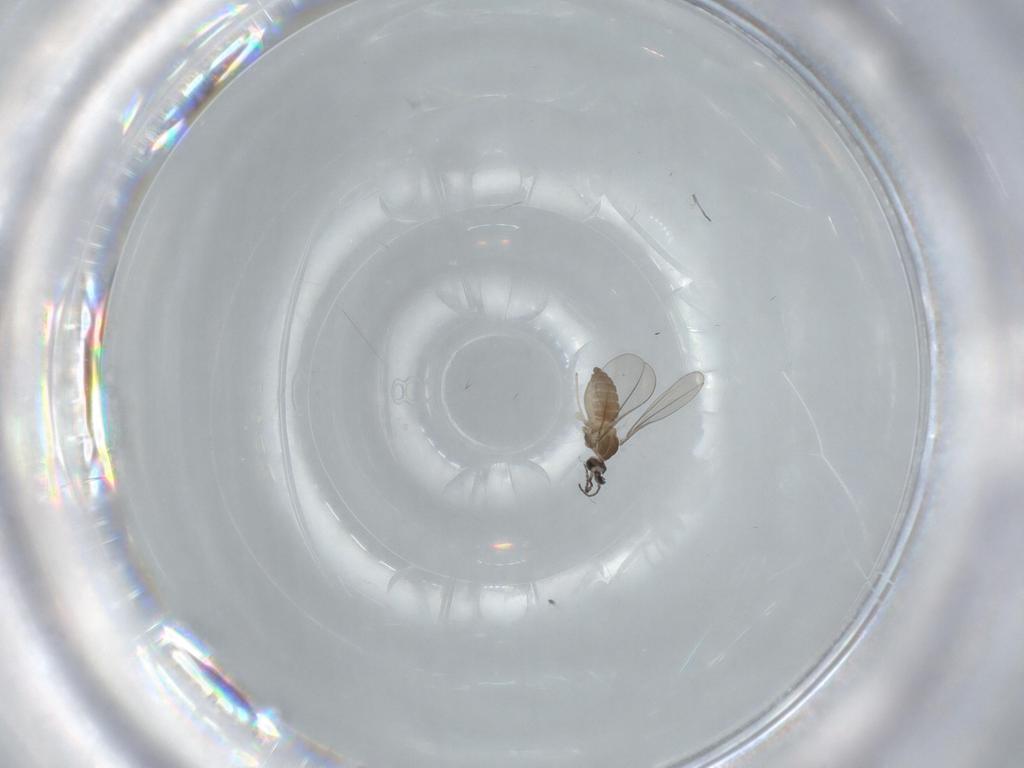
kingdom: Animalia
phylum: Arthropoda
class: Insecta
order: Diptera
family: Cecidomyiidae
